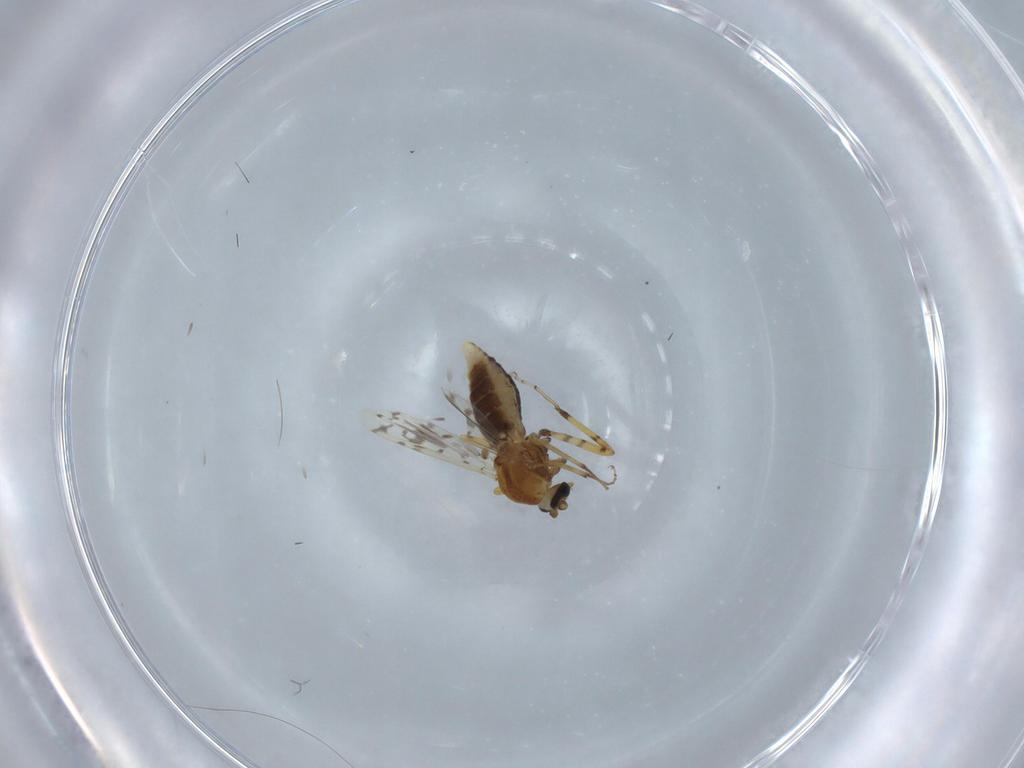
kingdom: Animalia
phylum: Arthropoda
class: Insecta
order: Diptera
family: Ceratopogonidae
